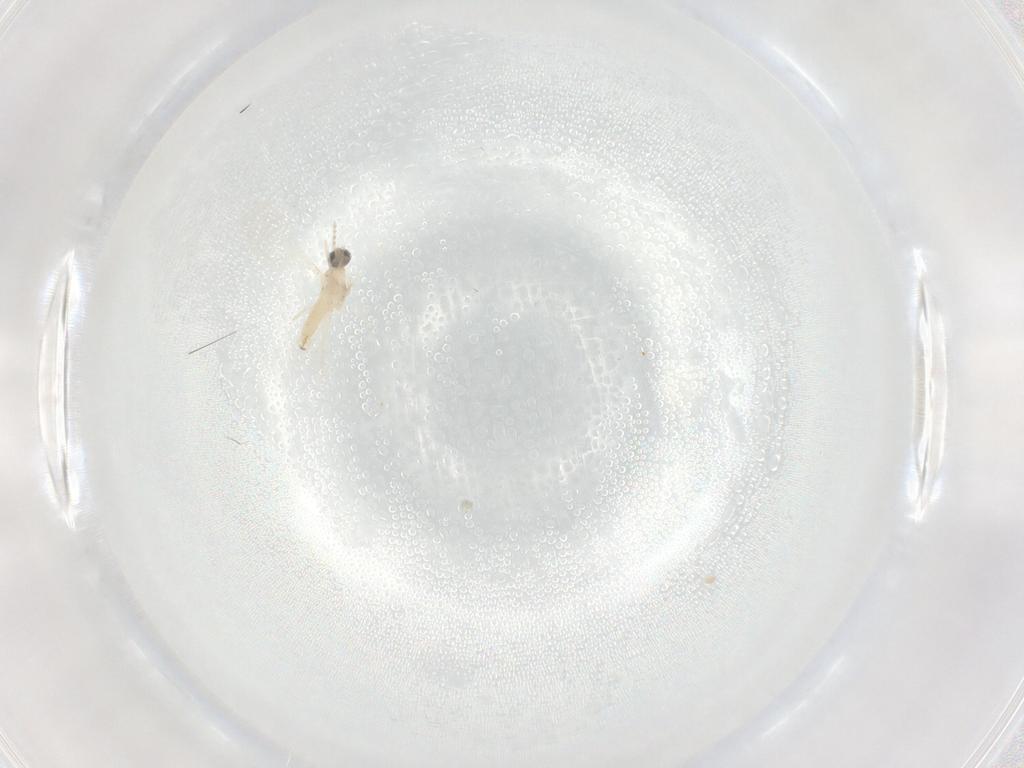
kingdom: Animalia
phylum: Arthropoda
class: Insecta
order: Diptera
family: Cecidomyiidae
